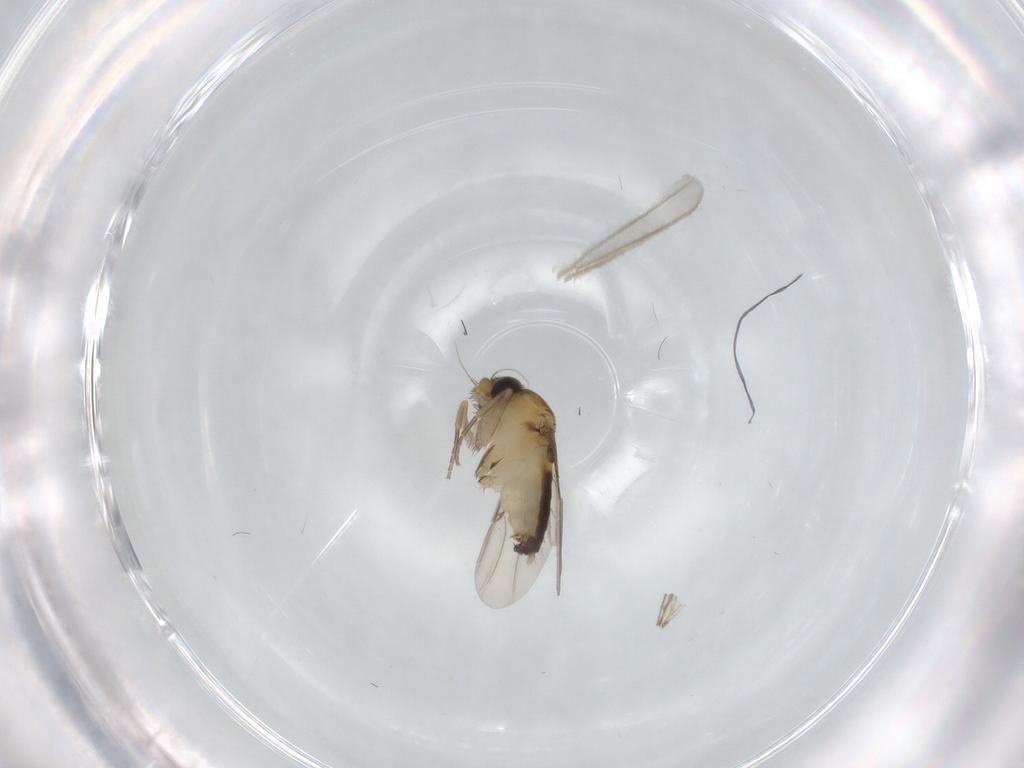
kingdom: Animalia
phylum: Arthropoda
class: Insecta
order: Diptera
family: Phoridae
